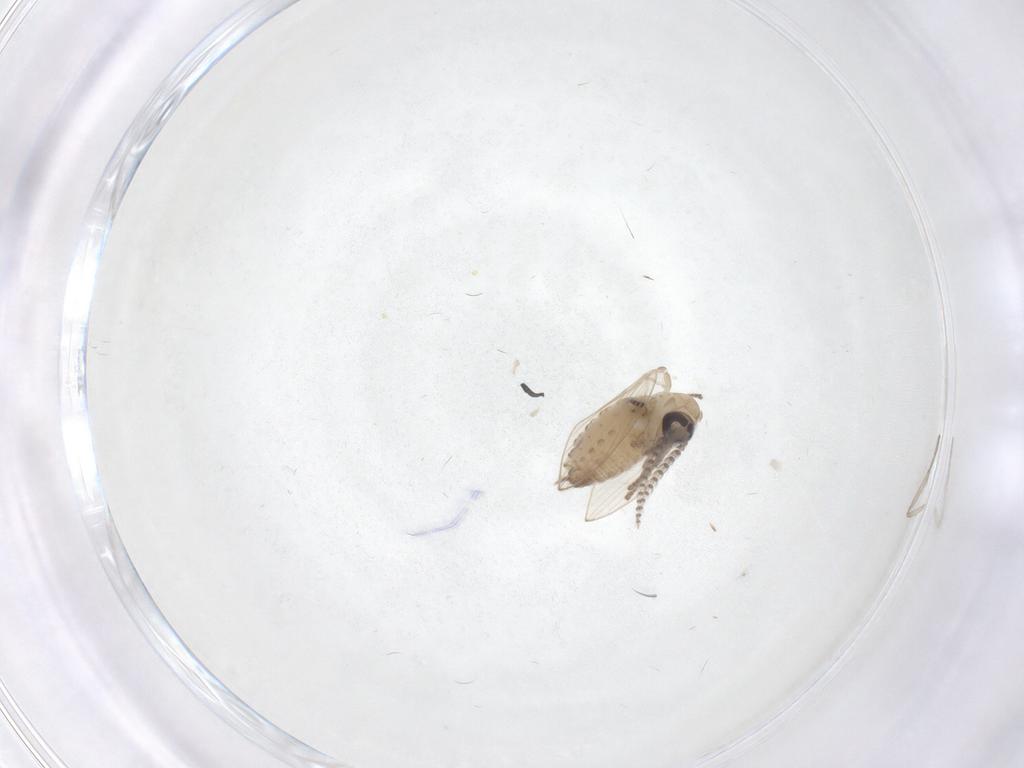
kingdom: Animalia
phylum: Arthropoda
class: Insecta
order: Diptera
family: Psychodidae
